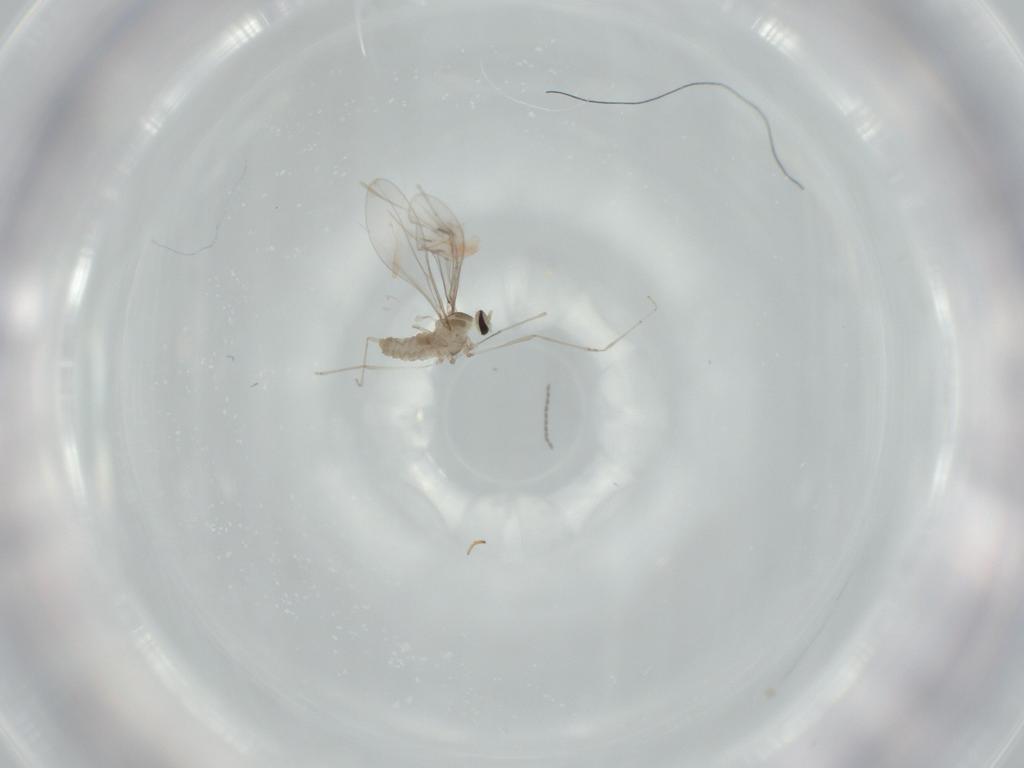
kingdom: Animalia
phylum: Arthropoda
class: Insecta
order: Diptera
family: Cecidomyiidae
